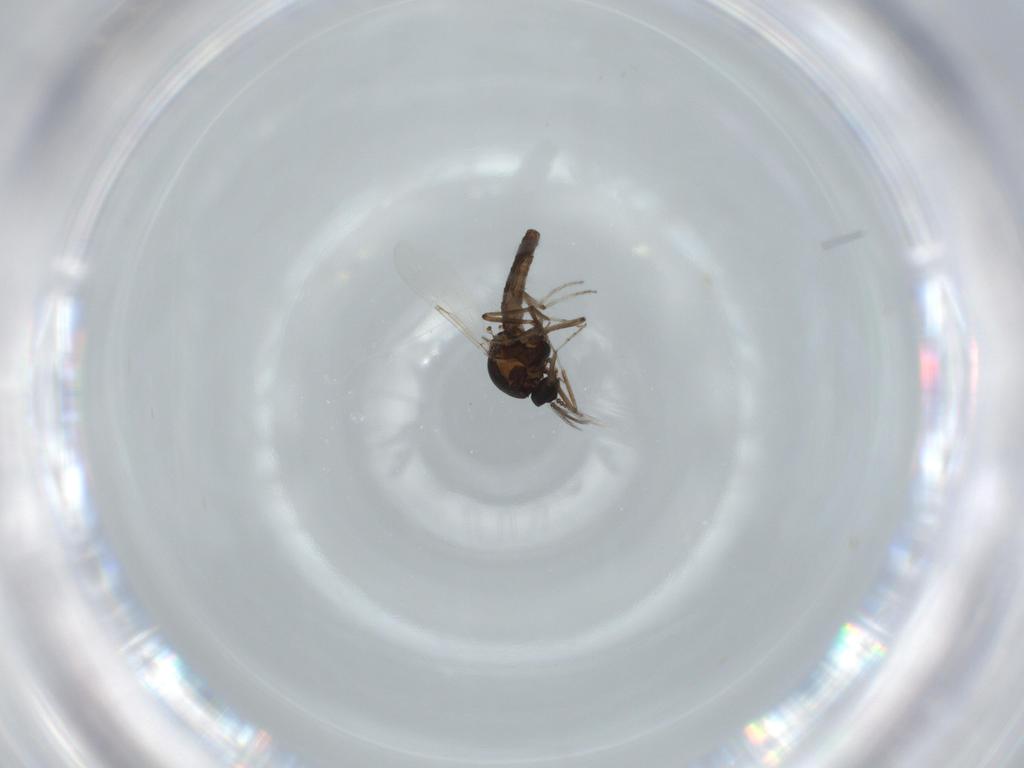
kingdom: Animalia
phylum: Arthropoda
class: Insecta
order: Diptera
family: Ceratopogonidae
